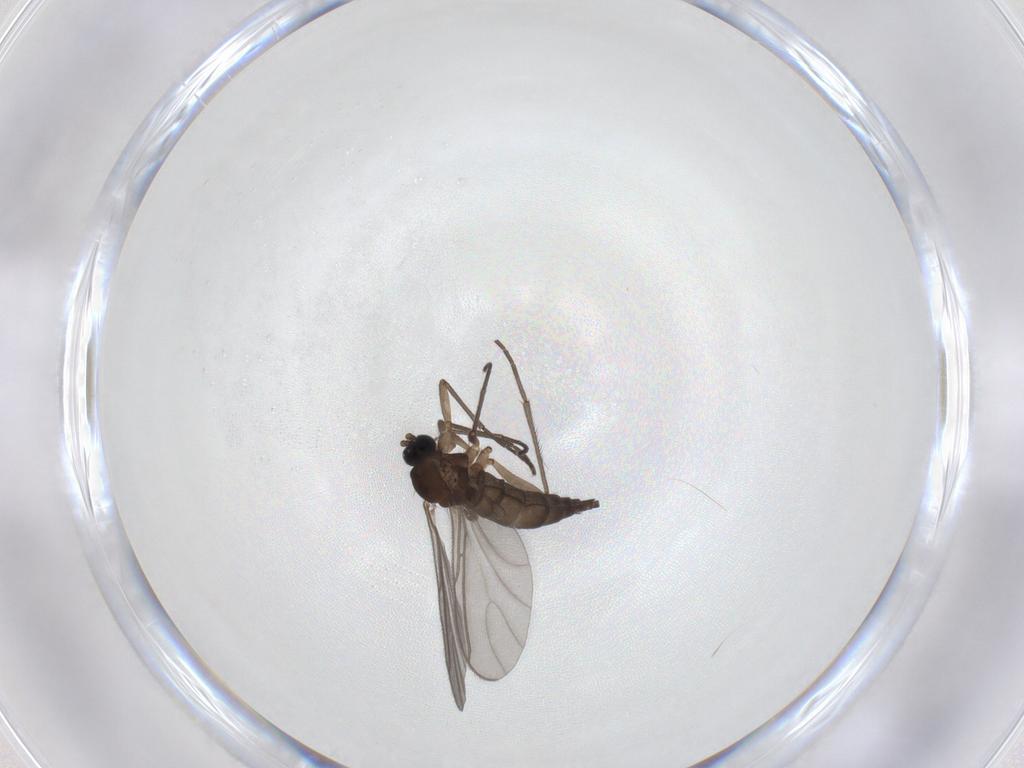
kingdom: Animalia
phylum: Arthropoda
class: Insecta
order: Diptera
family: Sciaridae
